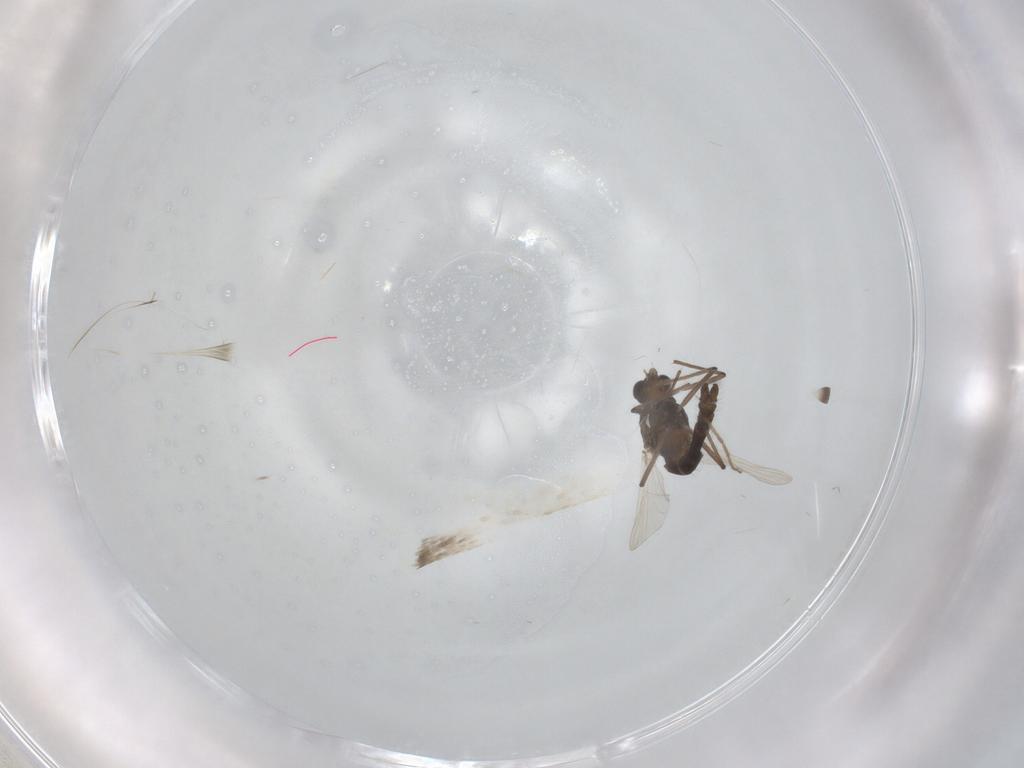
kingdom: Animalia
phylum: Arthropoda
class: Insecta
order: Diptera
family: Chironomidae
